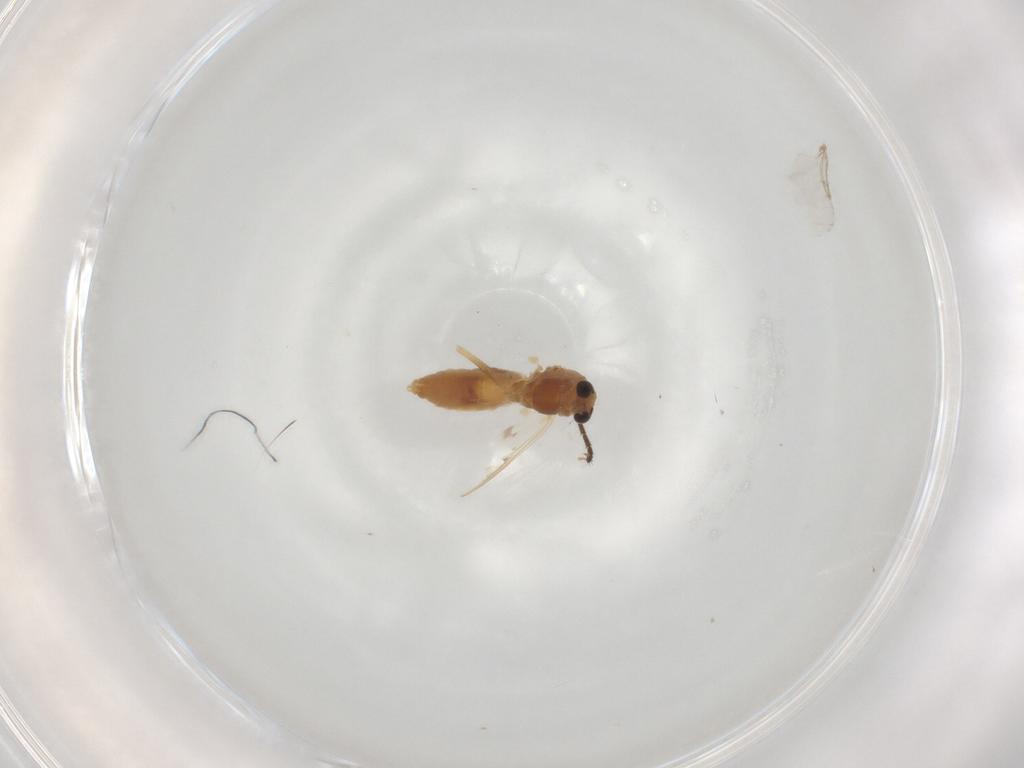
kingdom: Animalia
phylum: Arthropoda
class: Insecta
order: Diptera
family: Chironomidae
